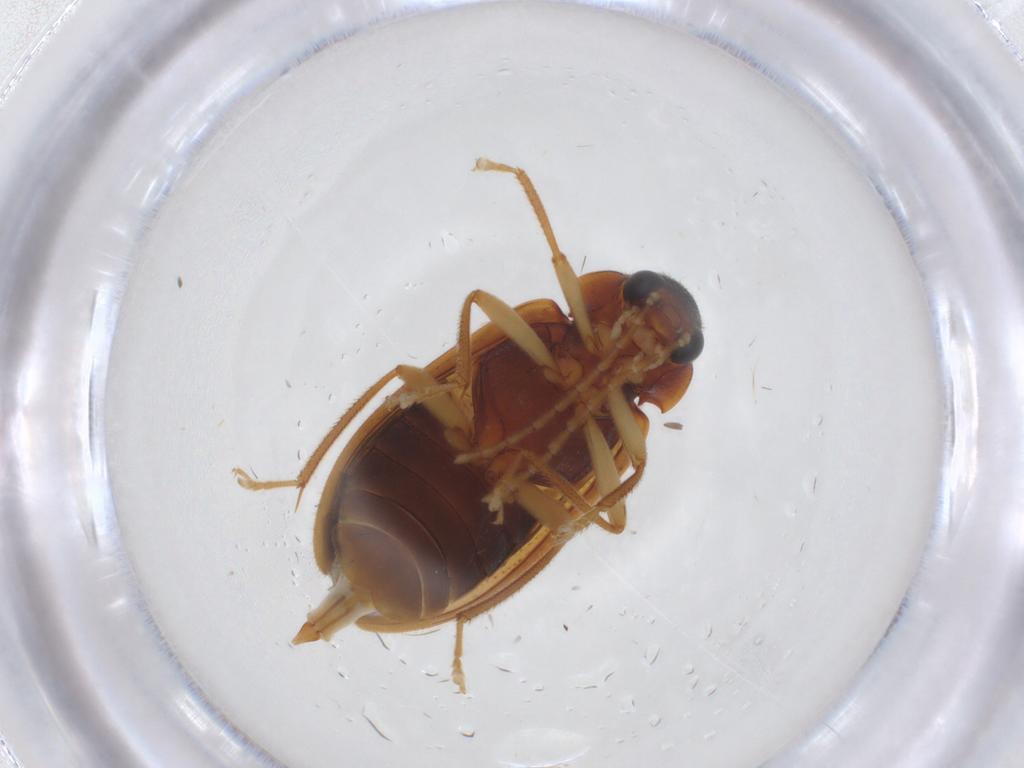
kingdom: Animalia
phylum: Arthropoda
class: Insecta
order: Coleoptera
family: Ptilodactylidae
